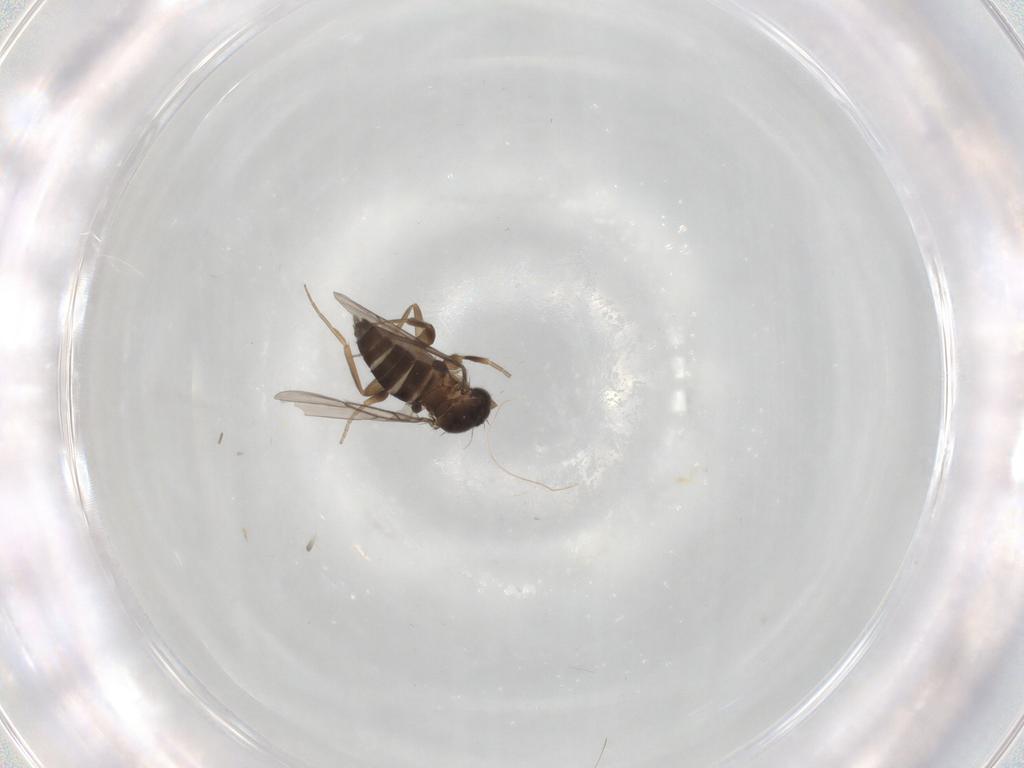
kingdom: Animalia
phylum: Arthropoda
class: Insecta
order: Diptera
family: Phoridae
